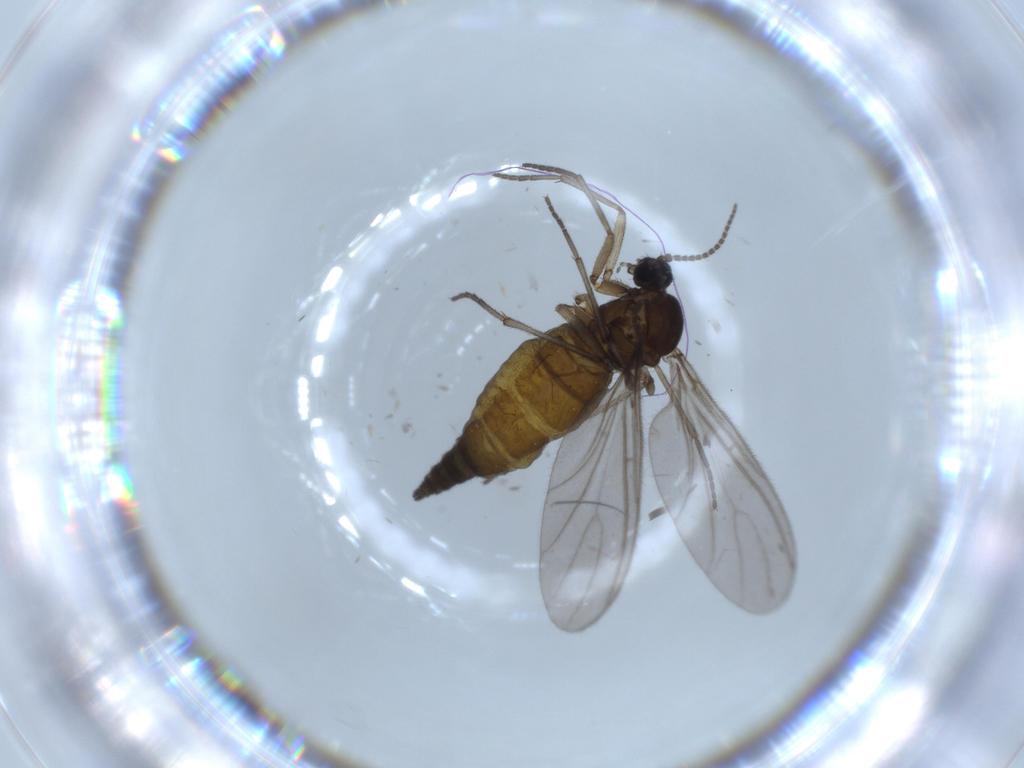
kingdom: Animalia
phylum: Arthropoda
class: Insecta
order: Diptera
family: Sciaridae
